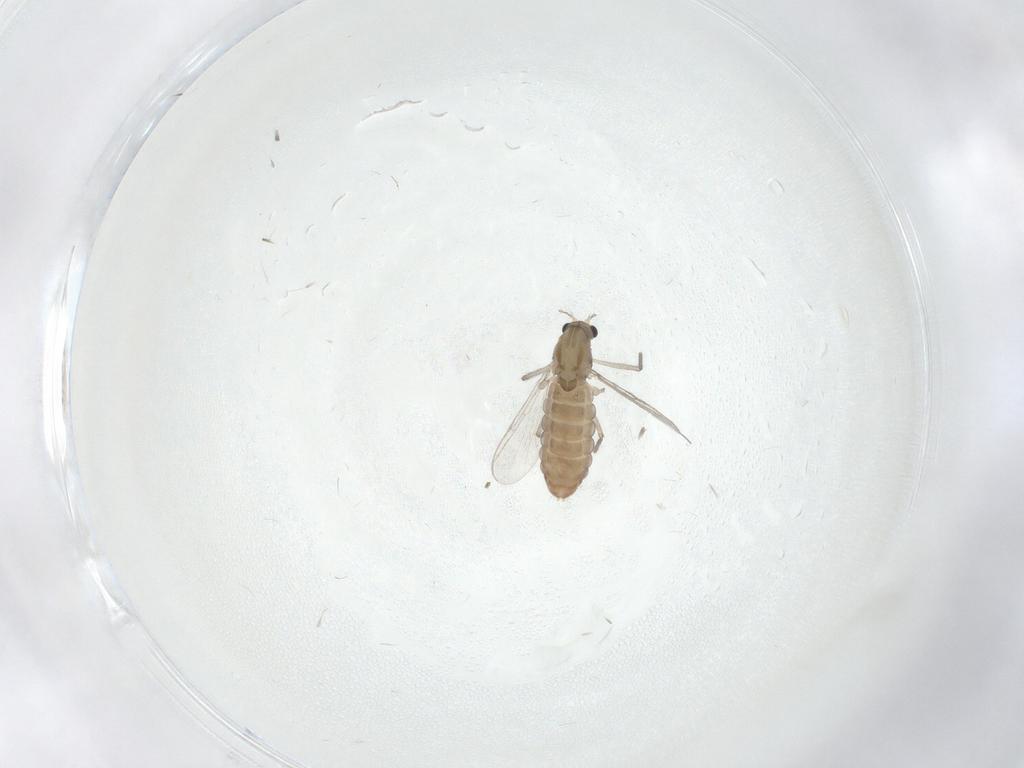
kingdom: Animalia
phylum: Arthropoda
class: Insecta
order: Diptera
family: Chironomidae
